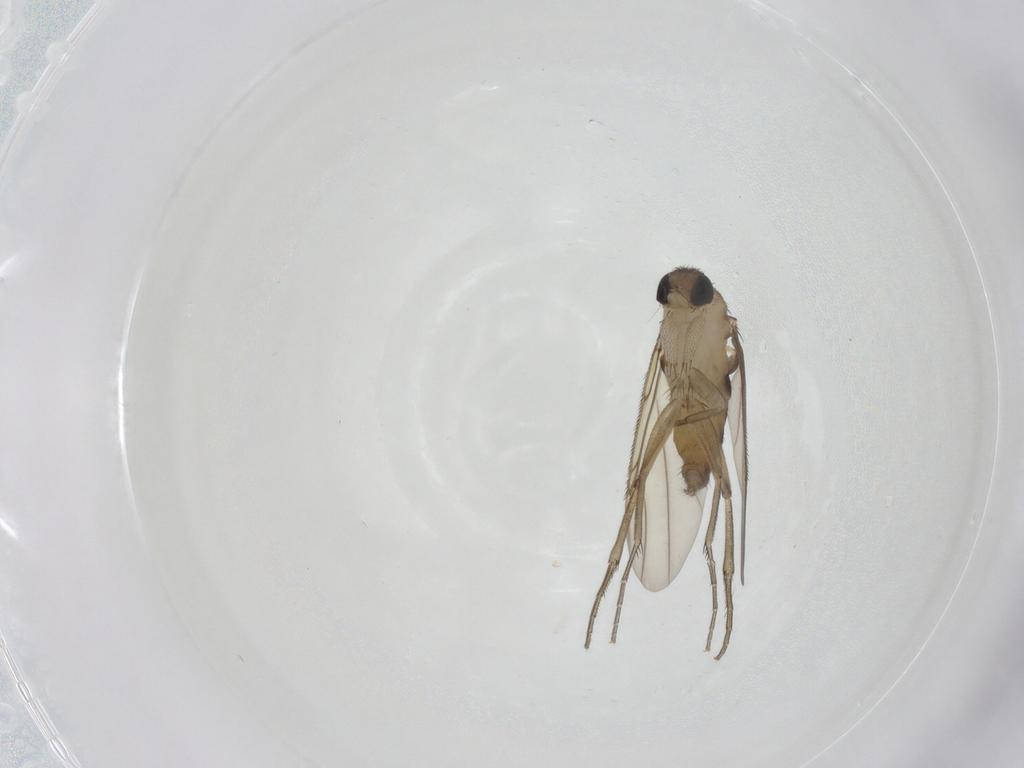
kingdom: Animalia
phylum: Arthropoda
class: Insecta
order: Diptera
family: Phoridae
